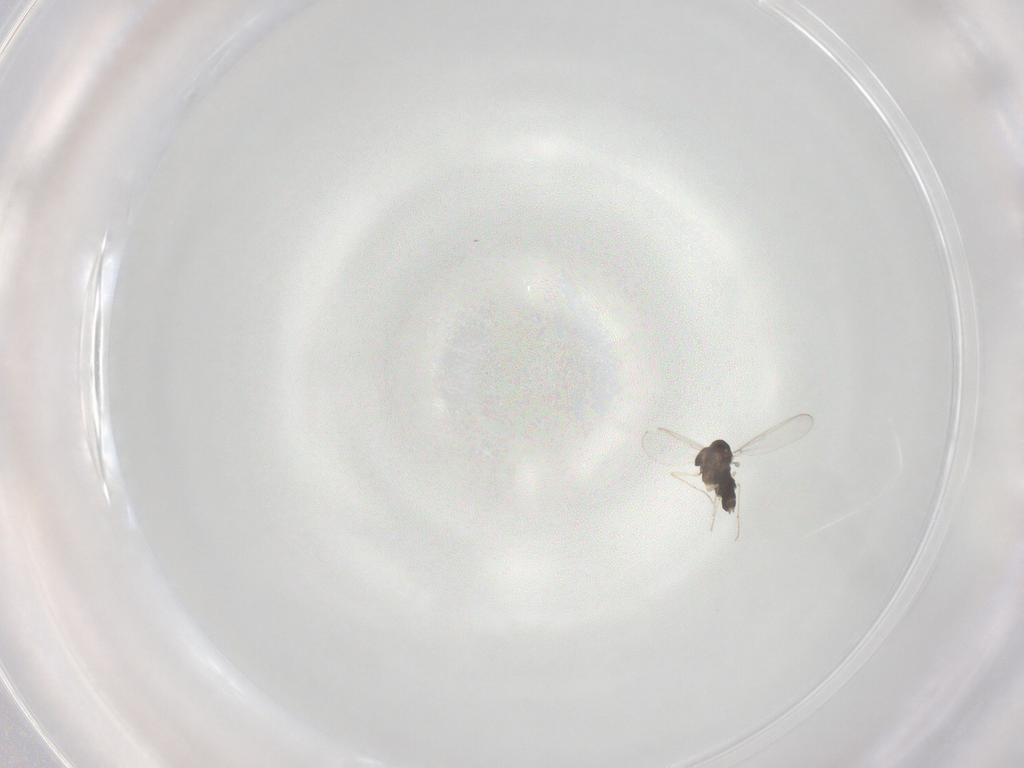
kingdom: Animalia
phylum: Arthropoda
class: Insecta
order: Diptera
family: Chironomidae
